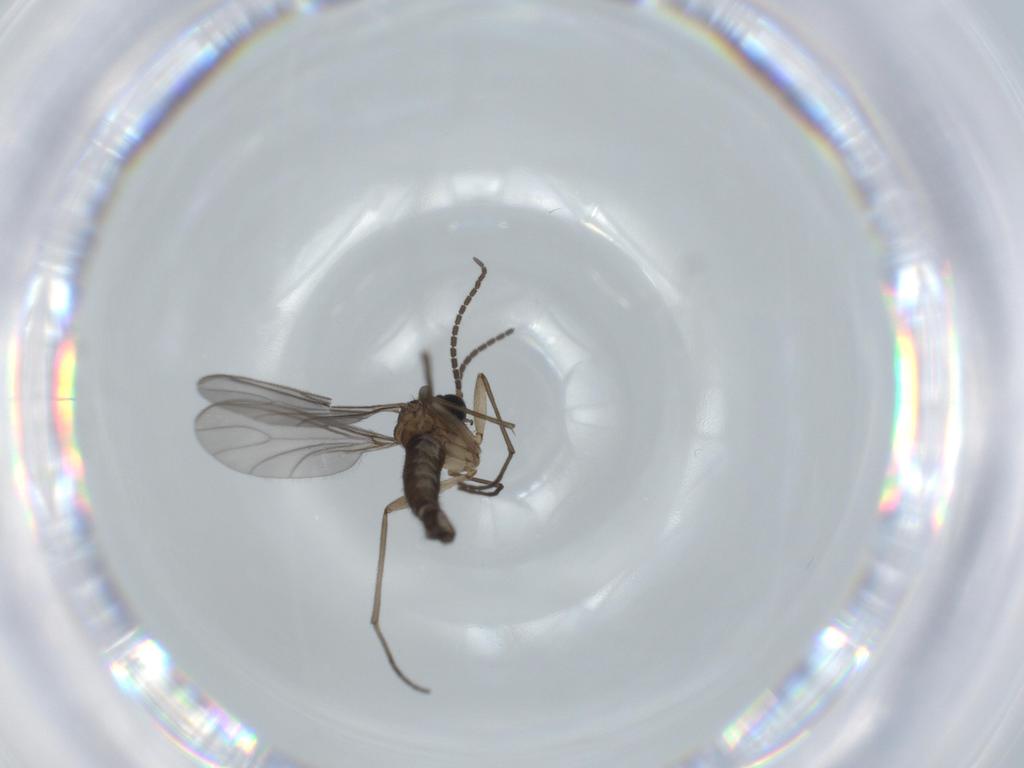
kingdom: Animalia
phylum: Arthropoda
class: Insecta
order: Diptera
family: Sciaridae
